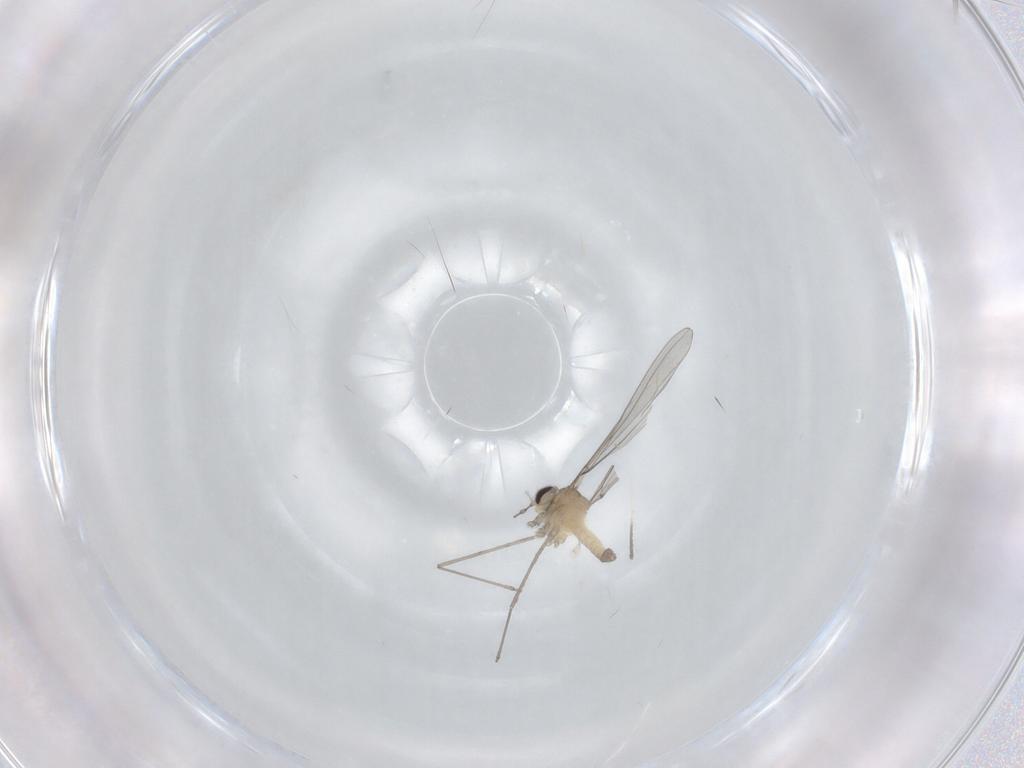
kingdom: Animalia
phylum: Arthropoda
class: Insecta
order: Diptera
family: Cecidomyiidae
